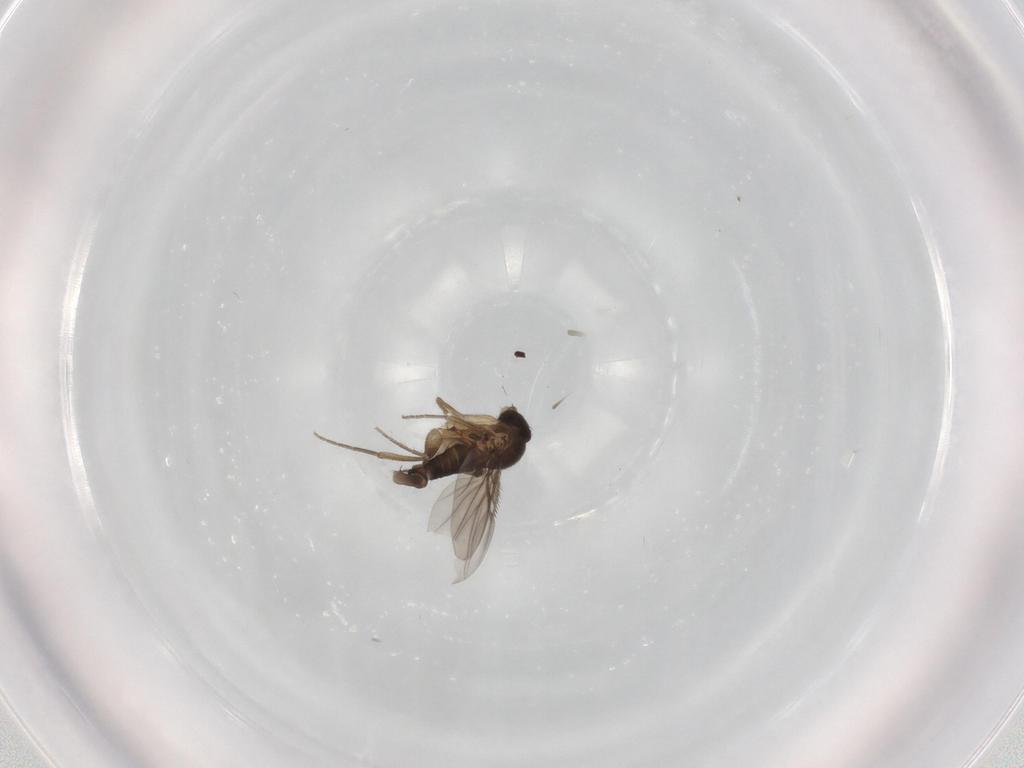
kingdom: Animalia
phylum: Arthropoda
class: Insecta
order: Diptera
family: Phoridae
